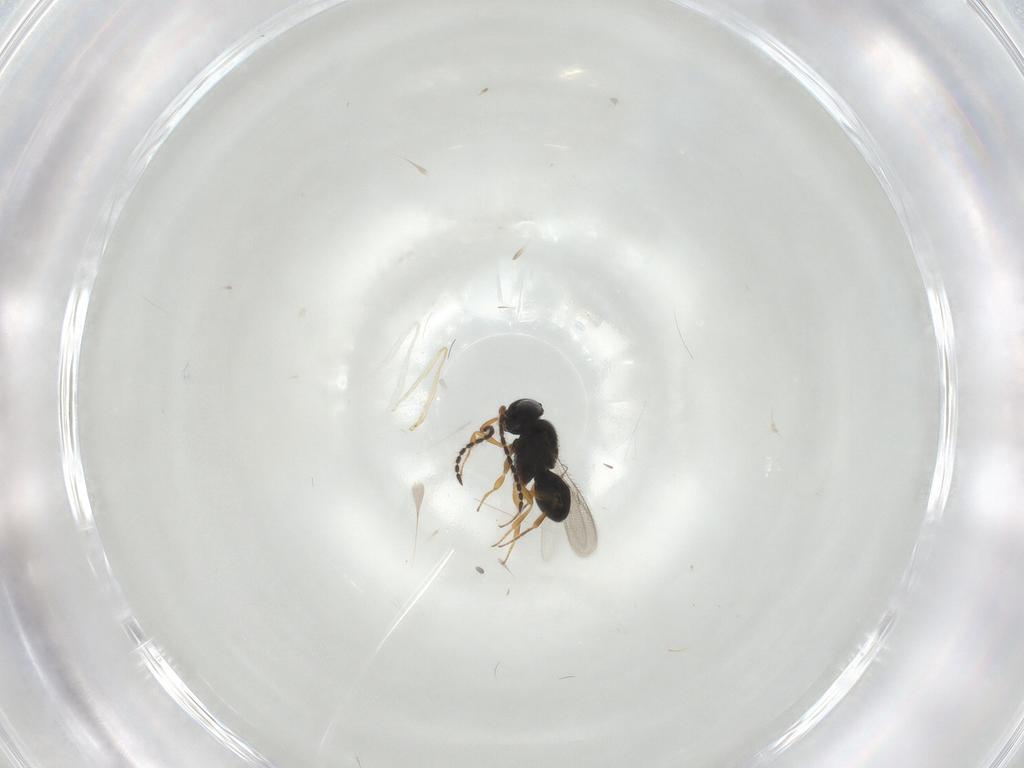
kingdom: Animalia
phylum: Arthropoda
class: Insecta
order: Hymenoptera
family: Scelionidae
